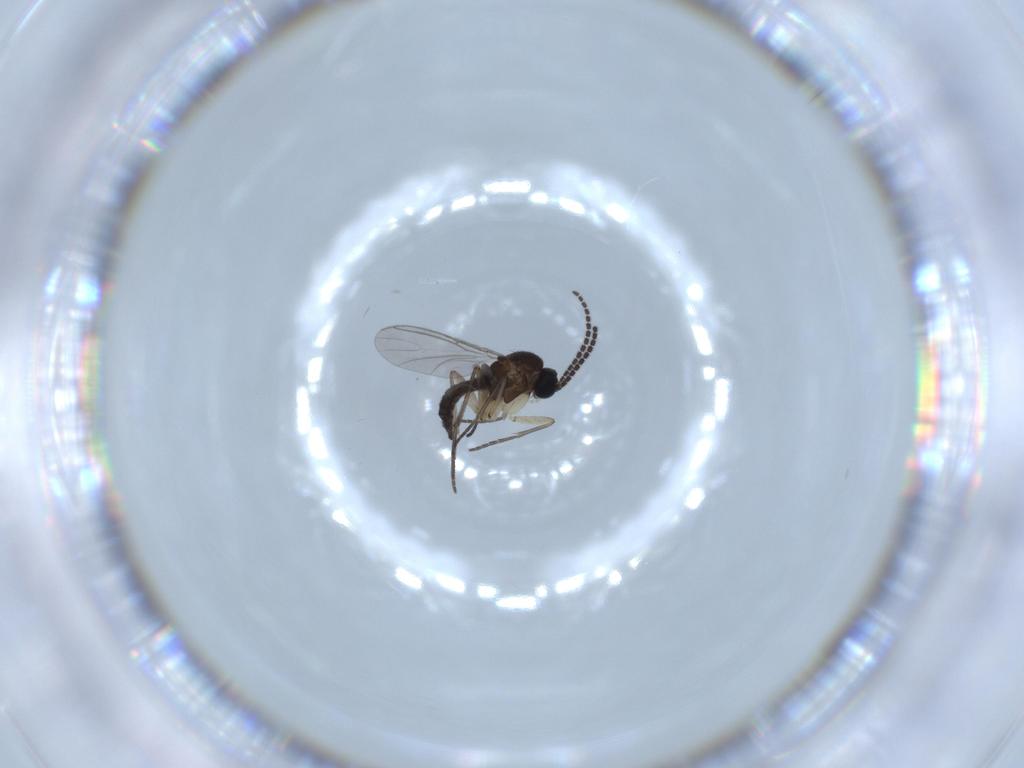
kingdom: Animalia
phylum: Arthropoda
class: Insecta
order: Diptera
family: Sciaridae
